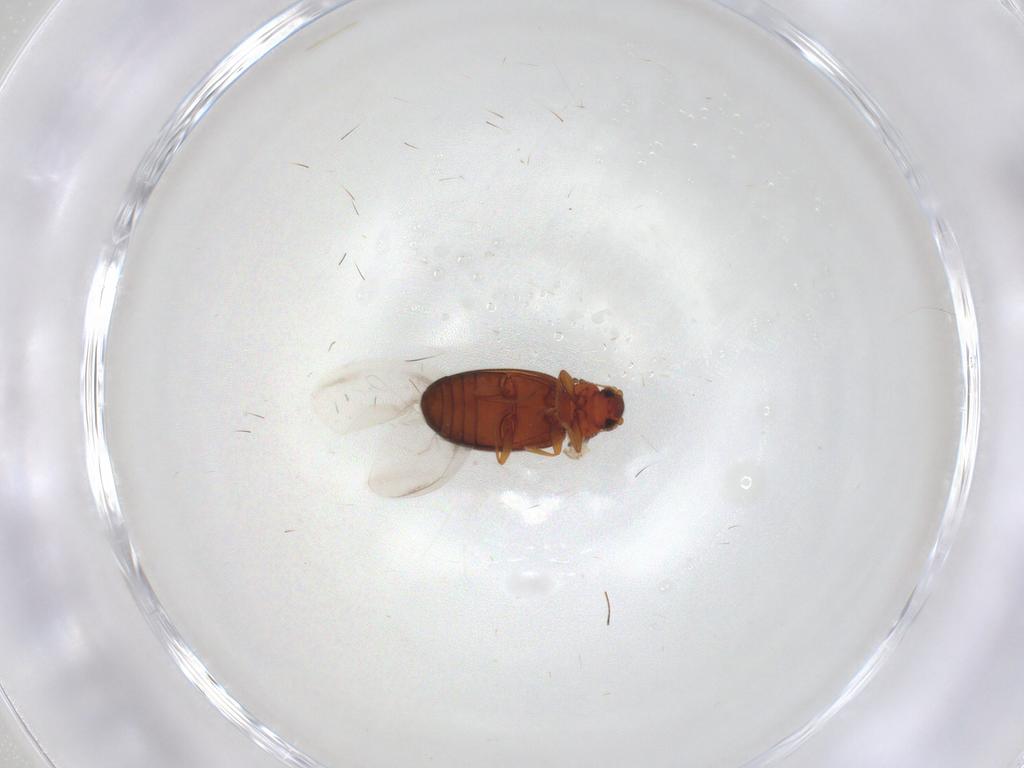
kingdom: Animalia
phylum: Arthropoda
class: Insecta
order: Coleoptera
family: Latridiidae
